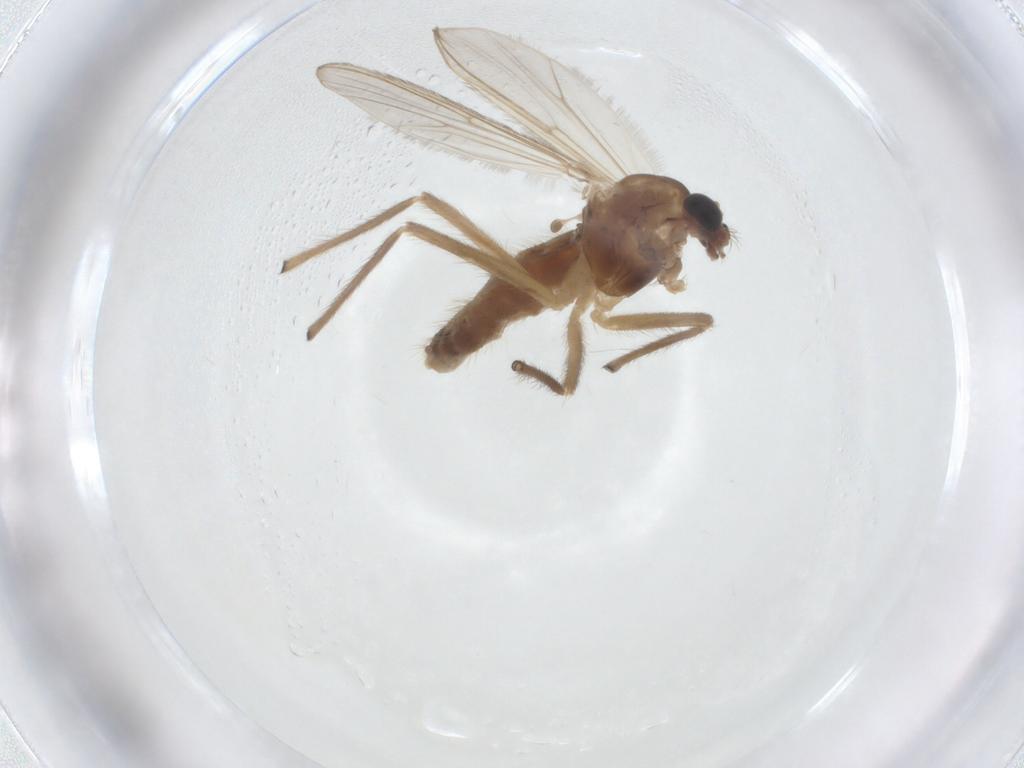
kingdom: Animalia
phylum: Arthropoda
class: Insecta
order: Diptera
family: Chironomidae
